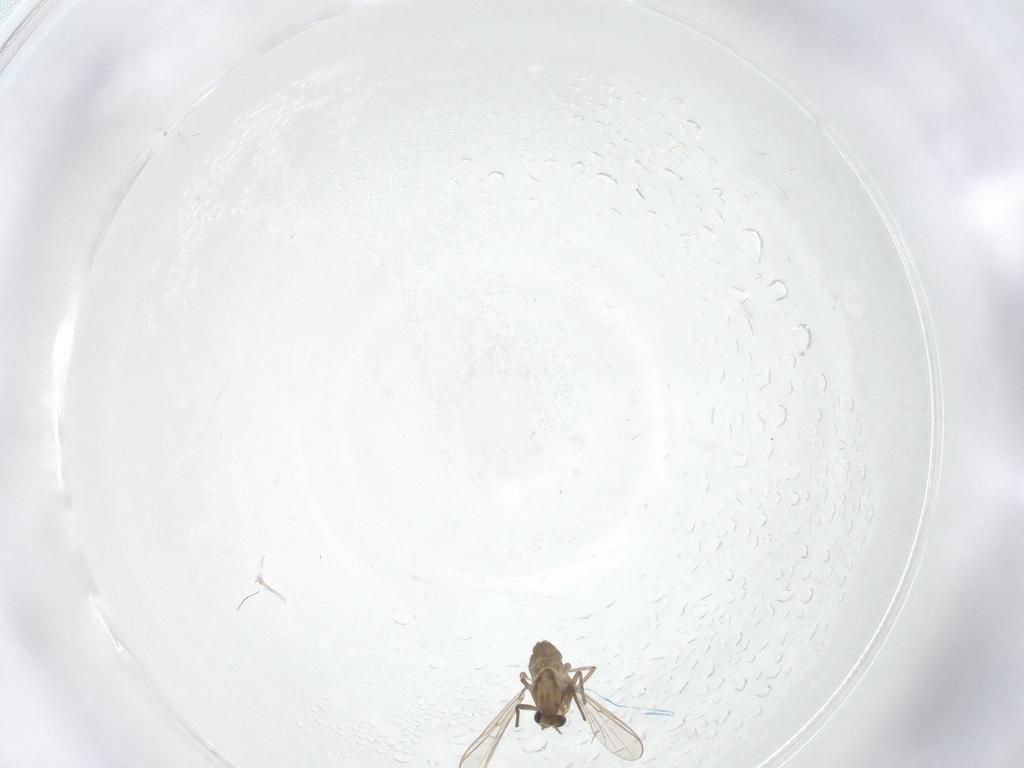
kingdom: Animalia
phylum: Arthropoda
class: Insecta
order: Diptera
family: Chironomidae
